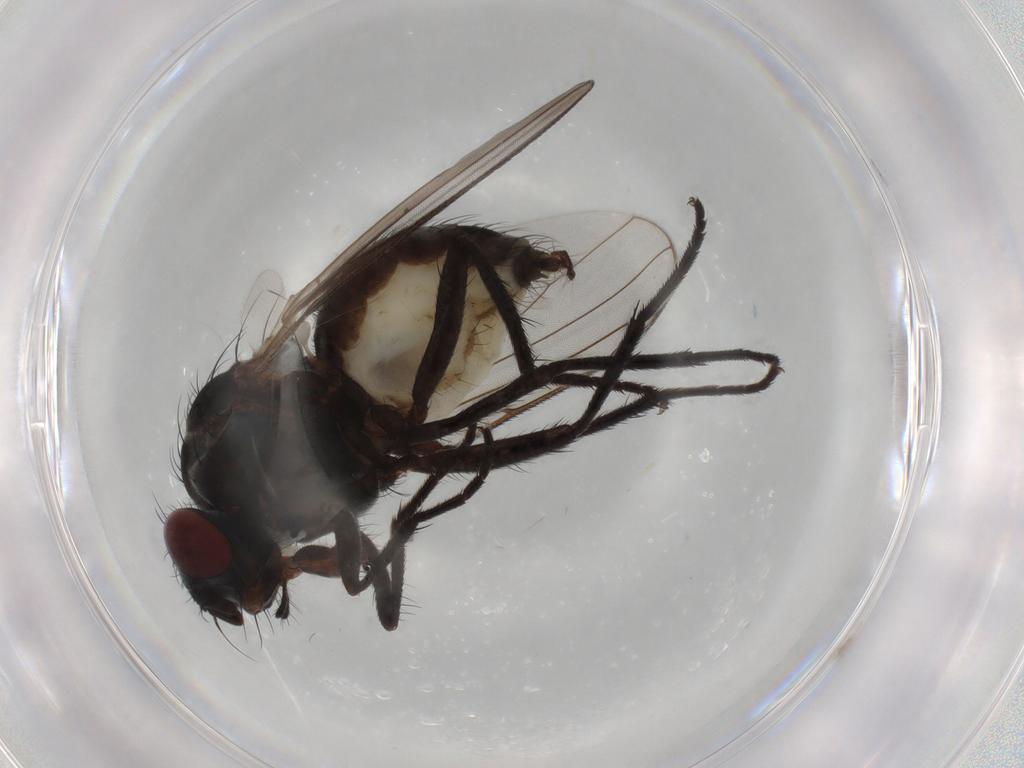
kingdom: Animalia
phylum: Arthropoda
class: Insecta
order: Diptera
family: Anthomyiidae
